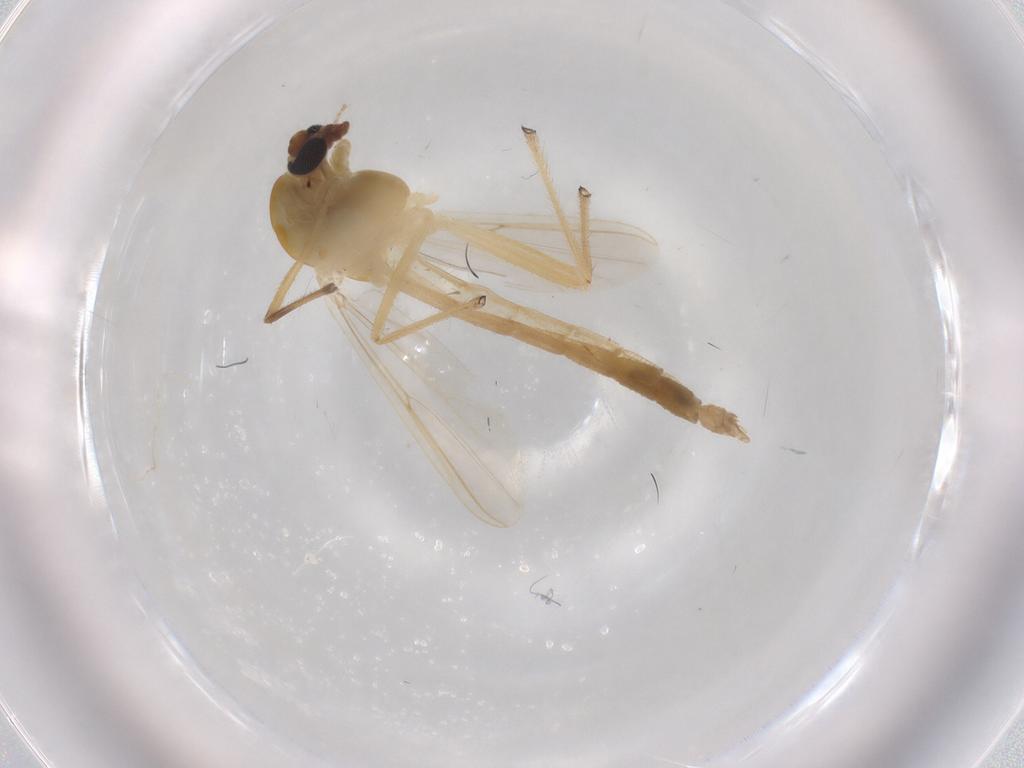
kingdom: Animalia
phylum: Arthropoda
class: Insecta
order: Diptera
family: Chironomidae
